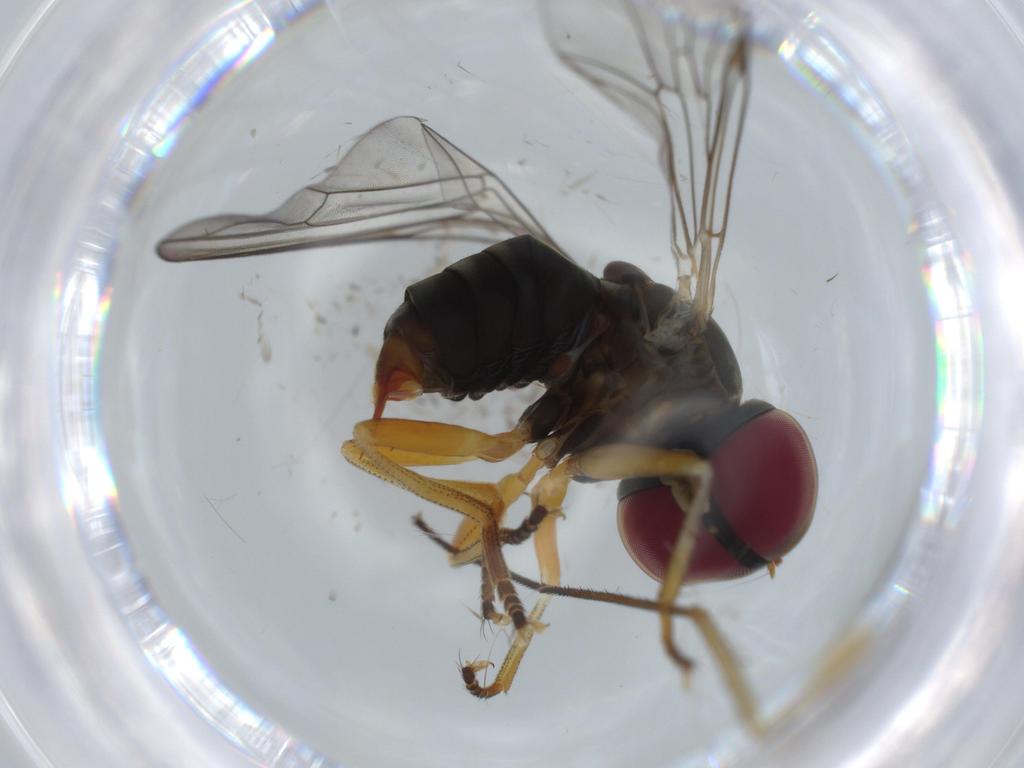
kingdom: Animalia
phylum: Arthropoda
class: Insecta
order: Diptera
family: Pipunculidae
